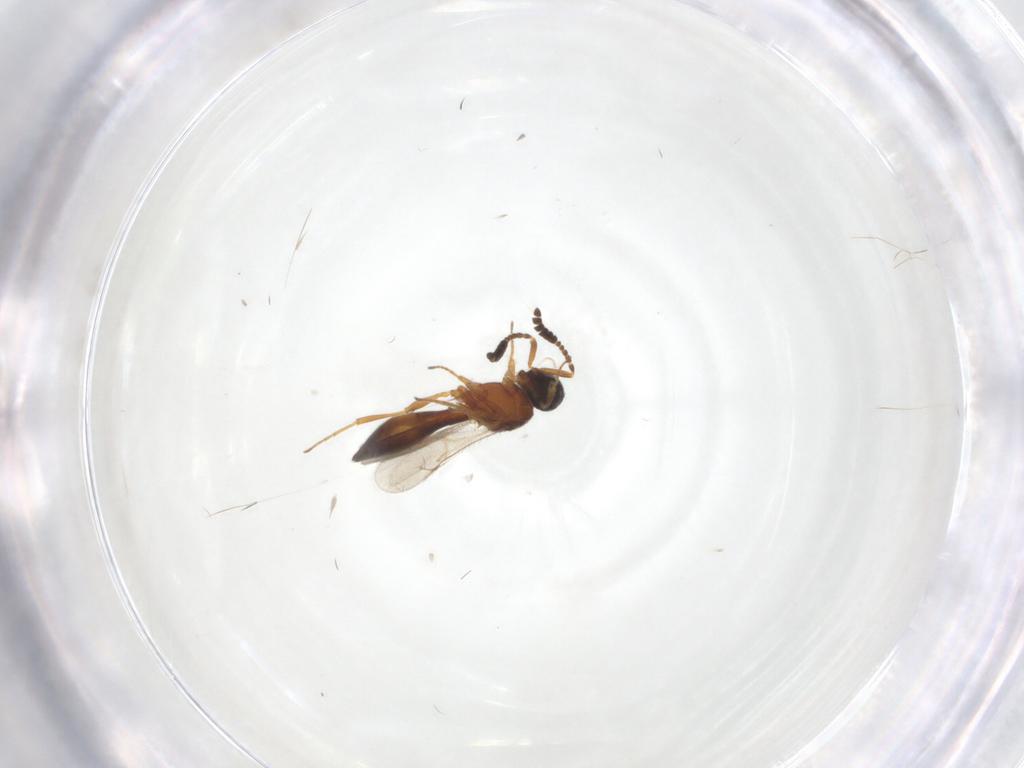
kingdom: Animalia
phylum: Arthropoda
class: Insecta
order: Hymenoptera
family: Scelionidae
